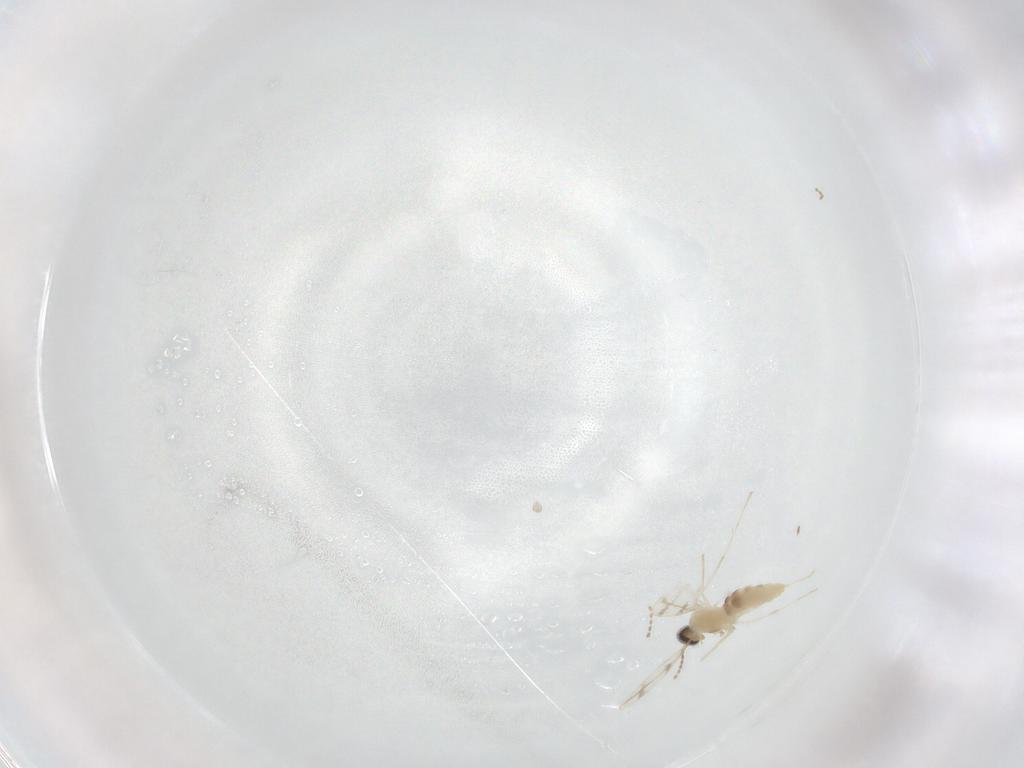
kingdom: Animalia
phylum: Arthropoda
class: Insecta
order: Diptera
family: Cecidomyiidae
